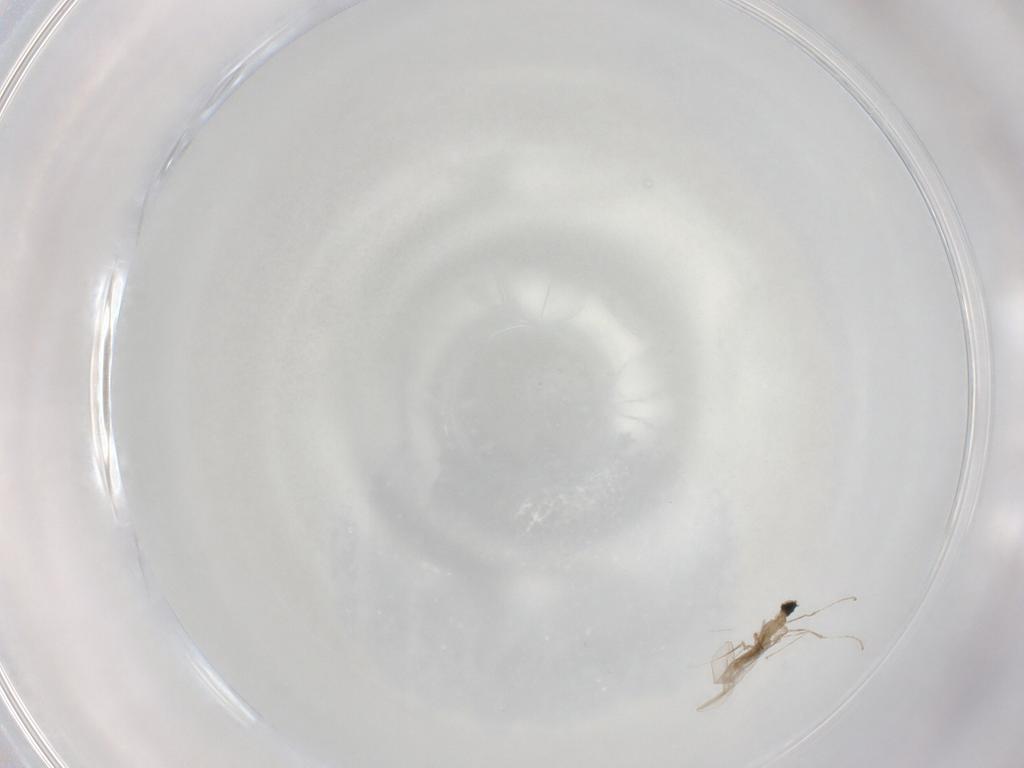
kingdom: Animalia
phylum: Arthropoda
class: Insecta
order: Diptera
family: Cecidomyiidae
